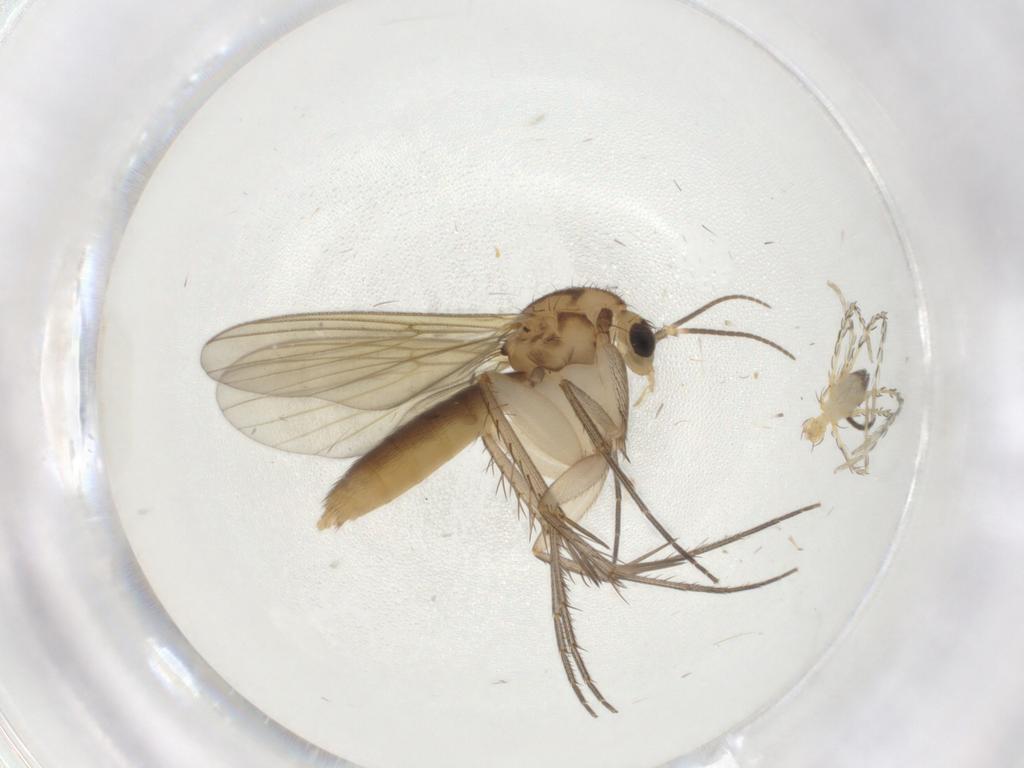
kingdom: Animalia
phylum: Arthropoda
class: Insecta
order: Diptera
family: Mycetophilidae
